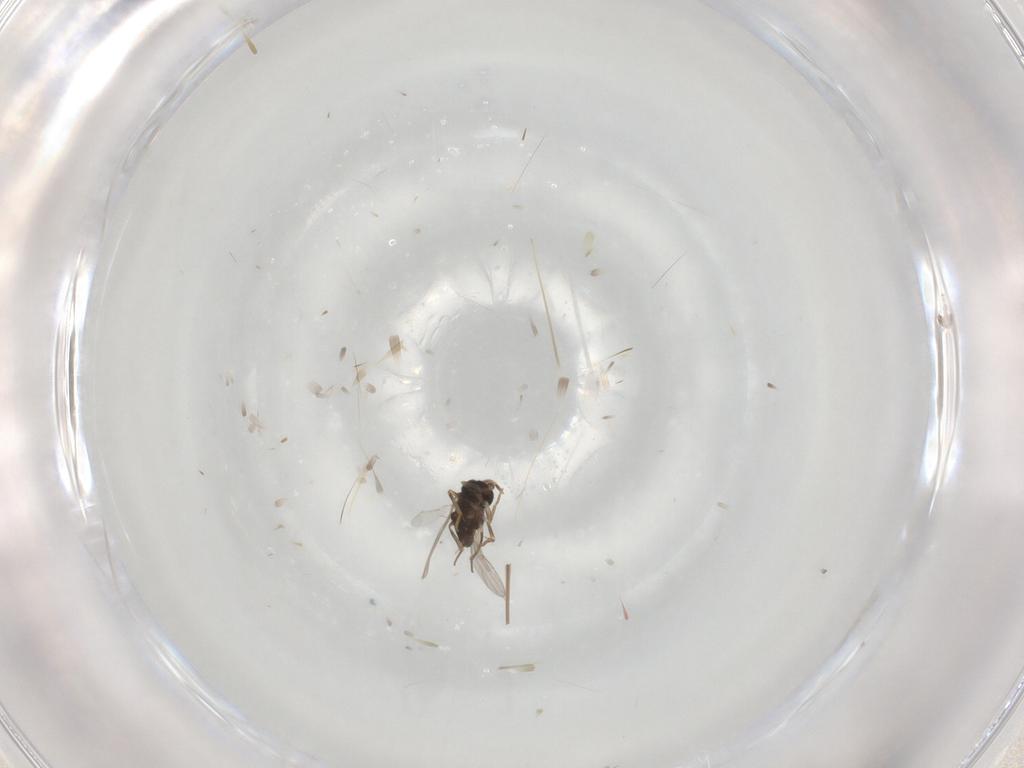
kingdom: Animalia
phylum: Arthropoda
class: Insecta
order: Hymenoptera
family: Encyrtidae
